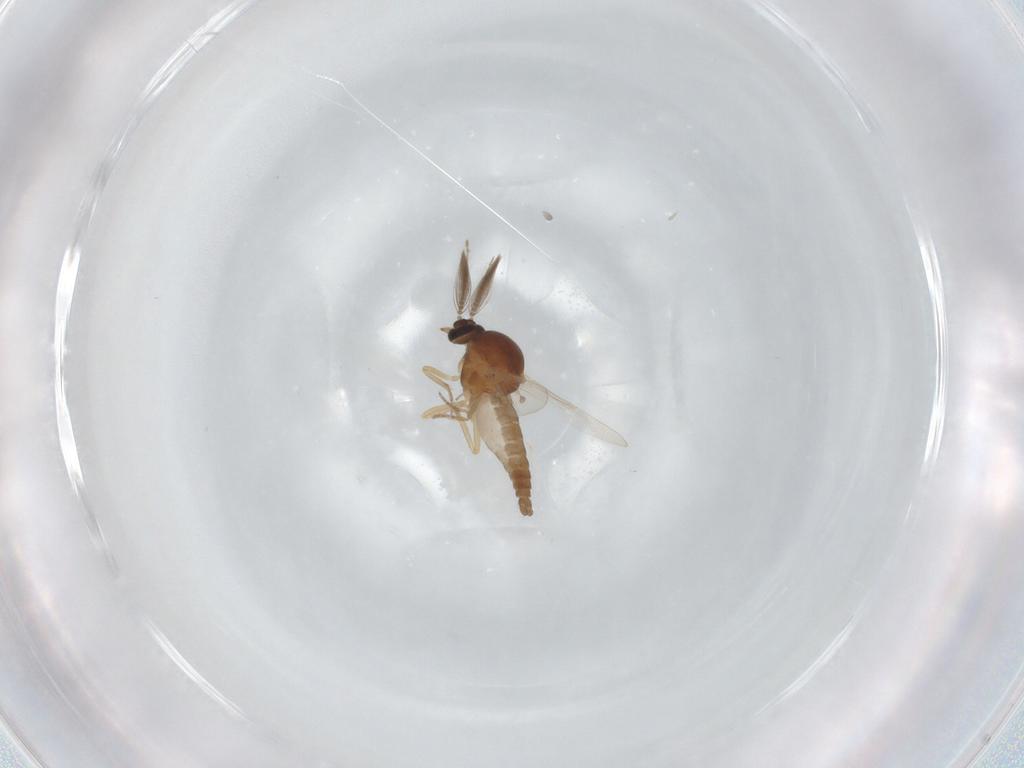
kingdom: Animalia
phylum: Arthropoda
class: Insecta
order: Diptera
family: Ceratopogonidae
